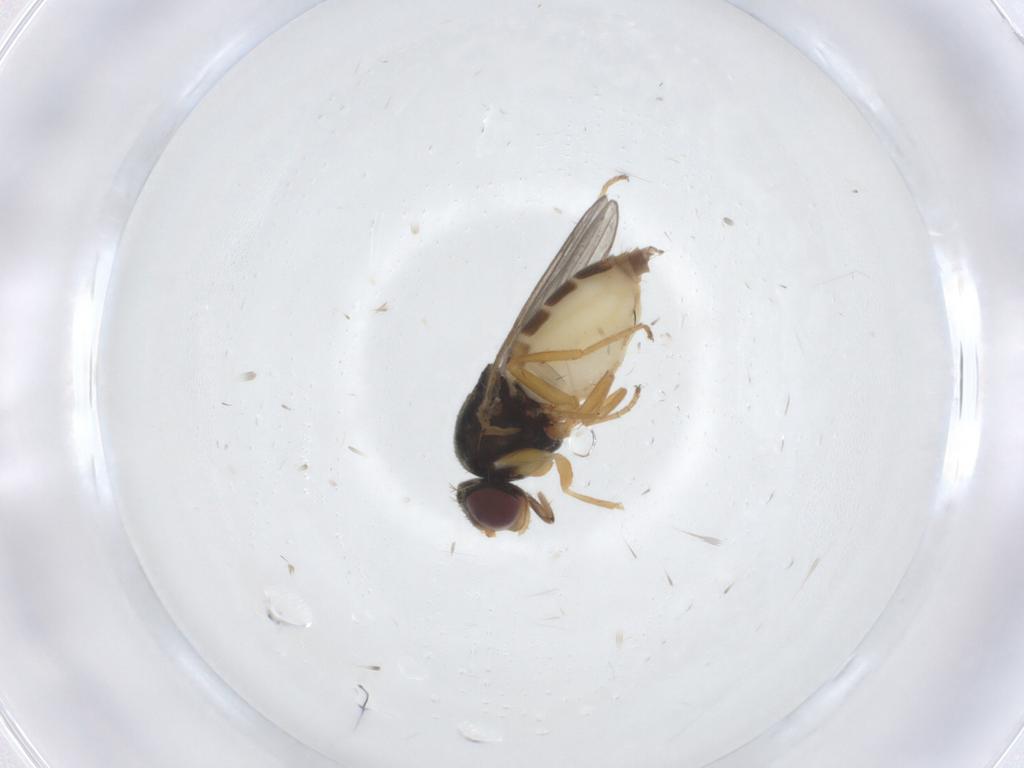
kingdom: Animalia
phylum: Arthropoda
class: Insecta
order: Diptera
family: Chloropidae
